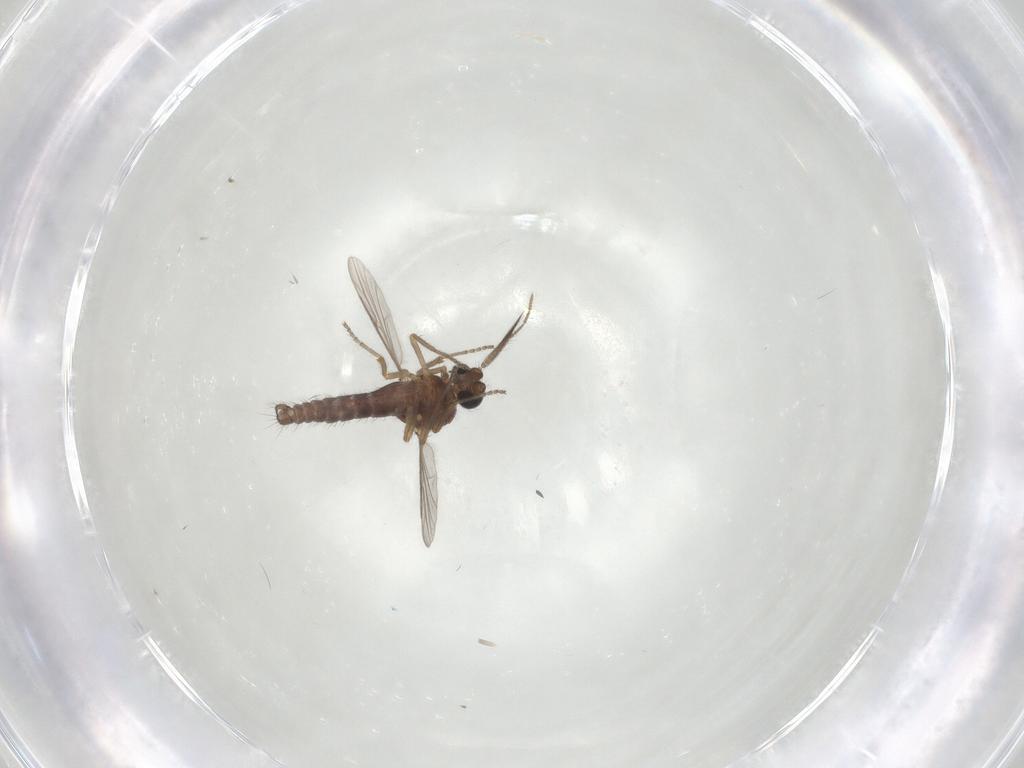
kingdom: Animalia
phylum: Arthropoda
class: Insecta
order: Diptera
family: Ceratopogonidae
